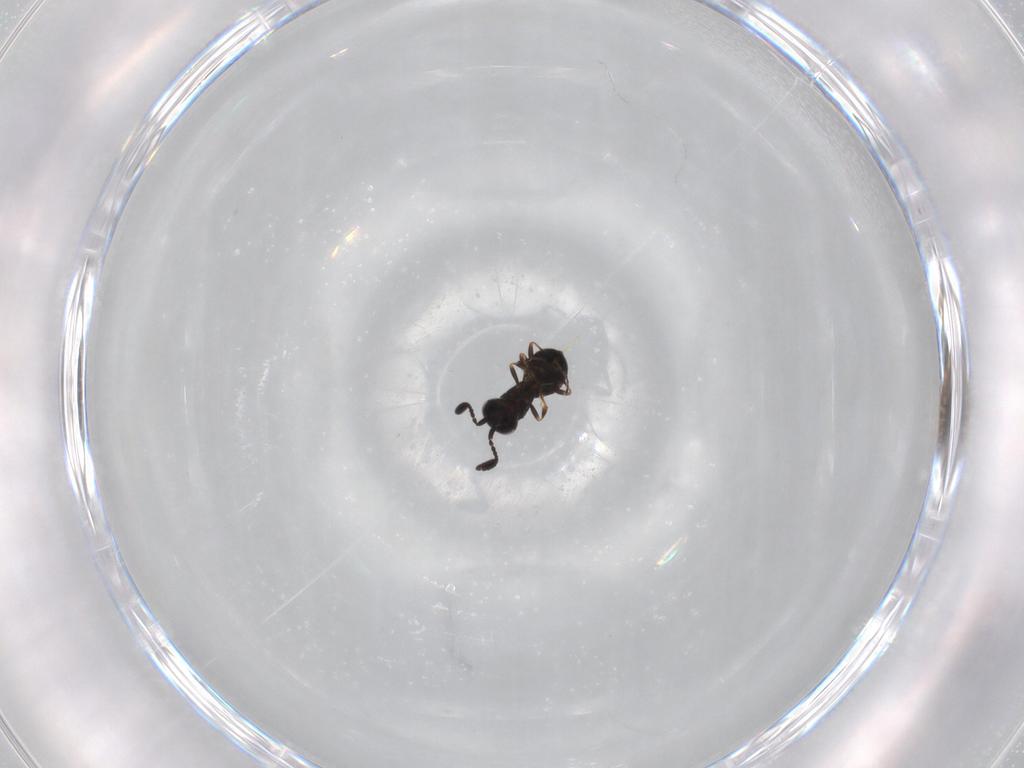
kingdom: Animalia
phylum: Arthropoda
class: Insecta
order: Hymenoptera
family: Scelionidae
